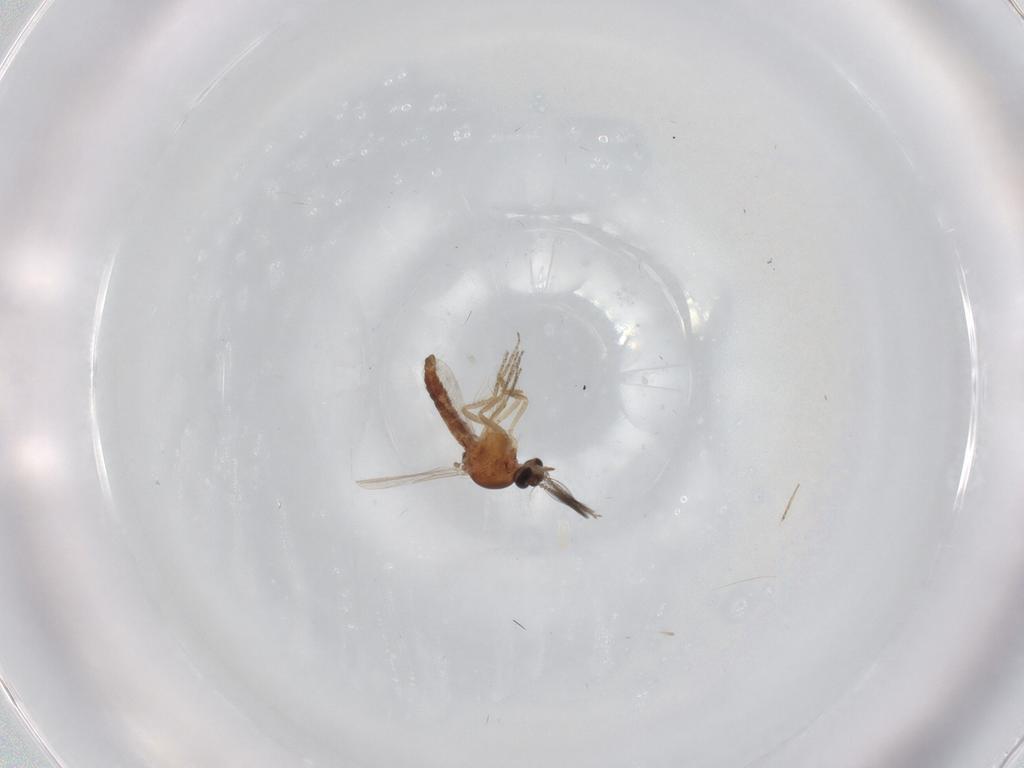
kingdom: Animalia
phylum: Arthropoda
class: Insecta
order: Diptera
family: Ceratopogonidae
